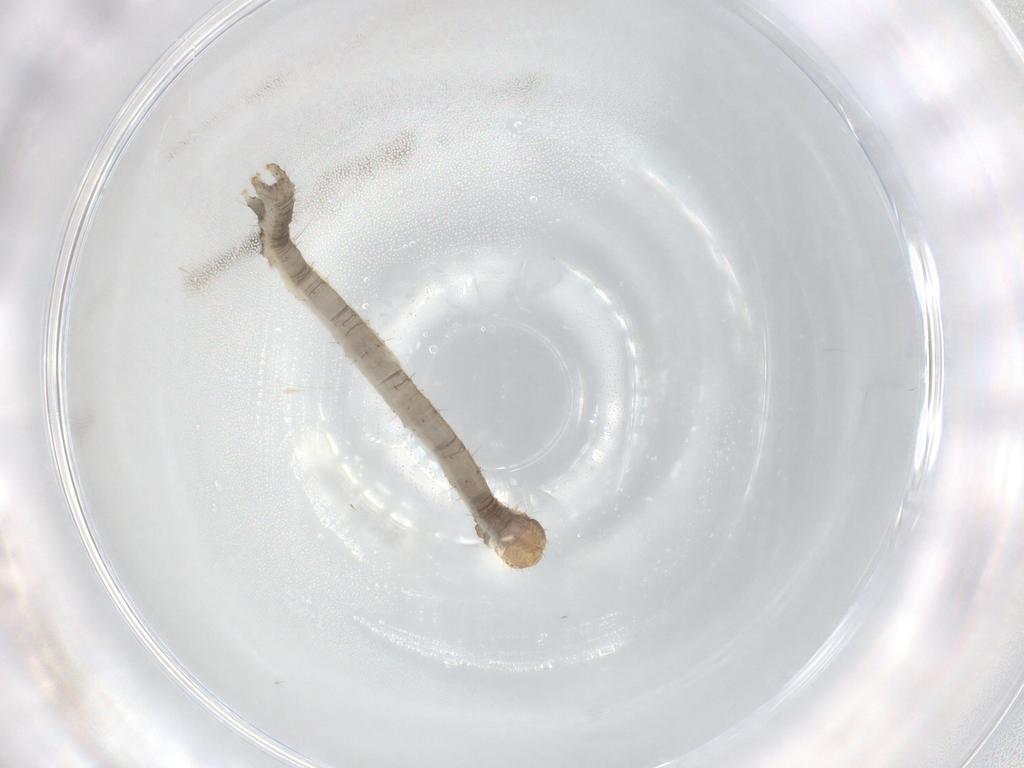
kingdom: Animalia
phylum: Arthropoda
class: Insecta
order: Lepidoptera
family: Geometridae
